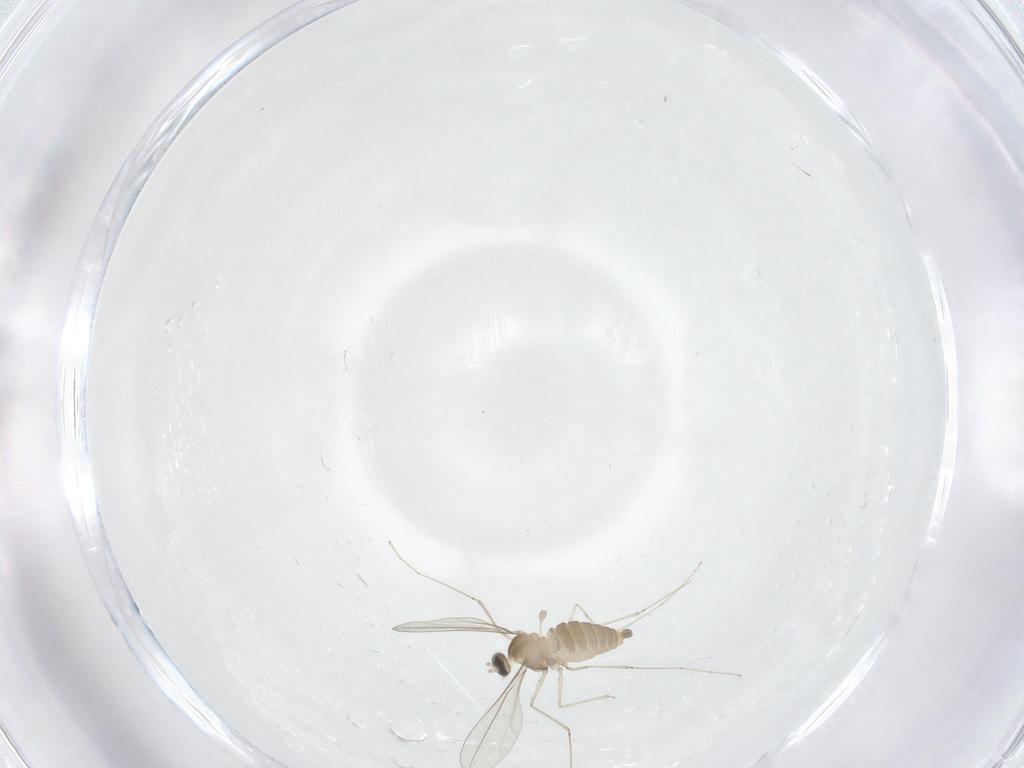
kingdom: Animalia
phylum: Arthropoda
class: Insecta
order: Diptera
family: Cecidomyiidae
